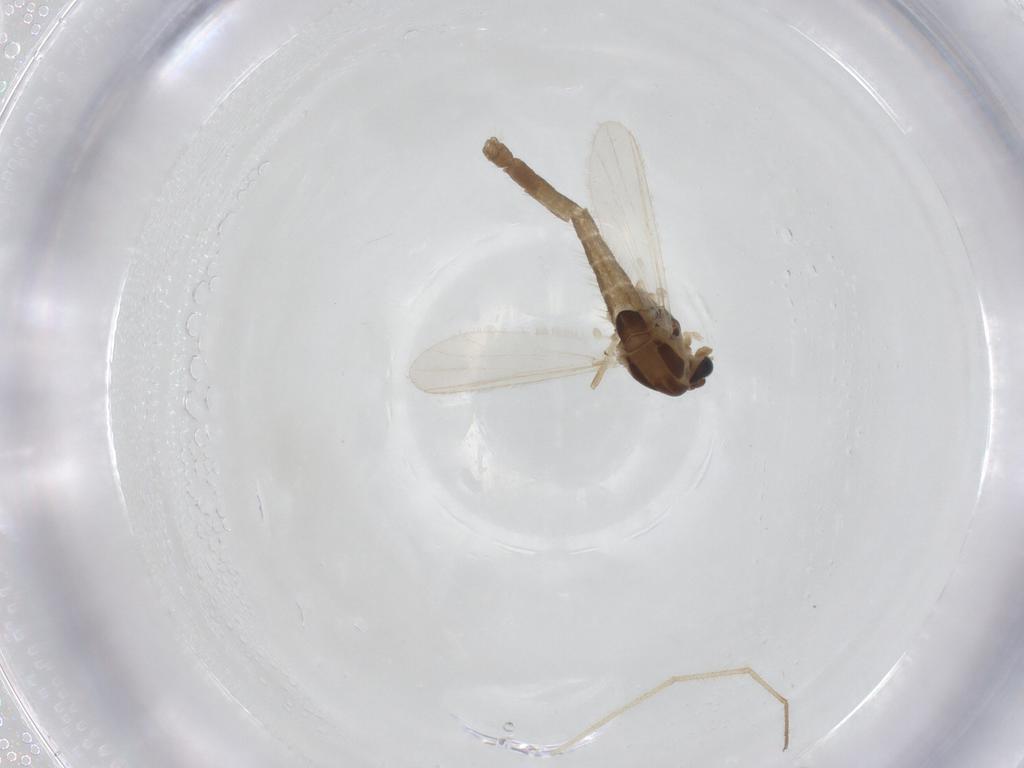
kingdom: Animalia
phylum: Arthropoda
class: Insecta
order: Diptera
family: Chironomidae
